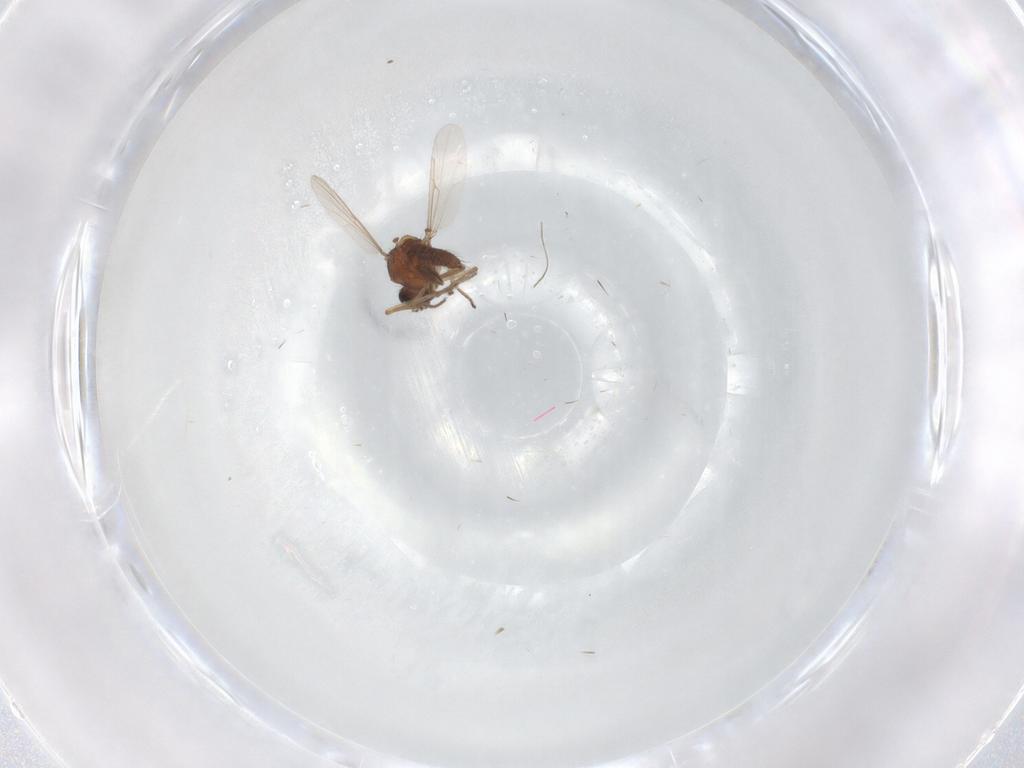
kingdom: Animalia
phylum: Arthropoda
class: Insecta
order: Diptera
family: Ceratopogonidae
